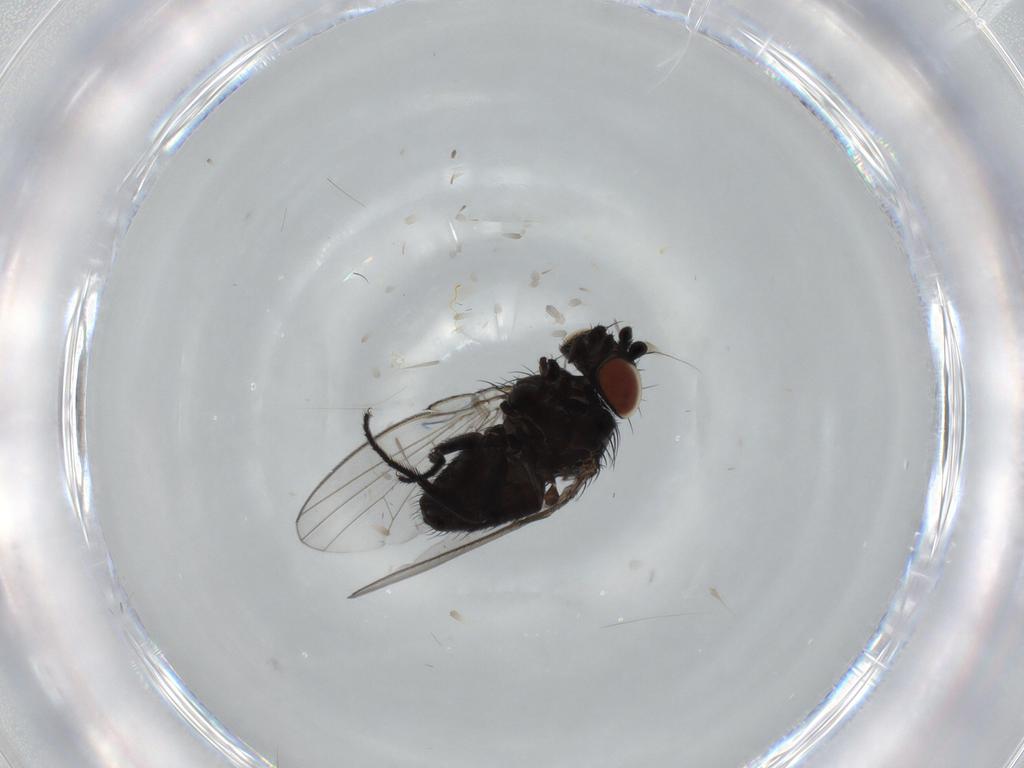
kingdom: Animalia
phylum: Arthropoda
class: Insecta
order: Diptera
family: Milichiidae
